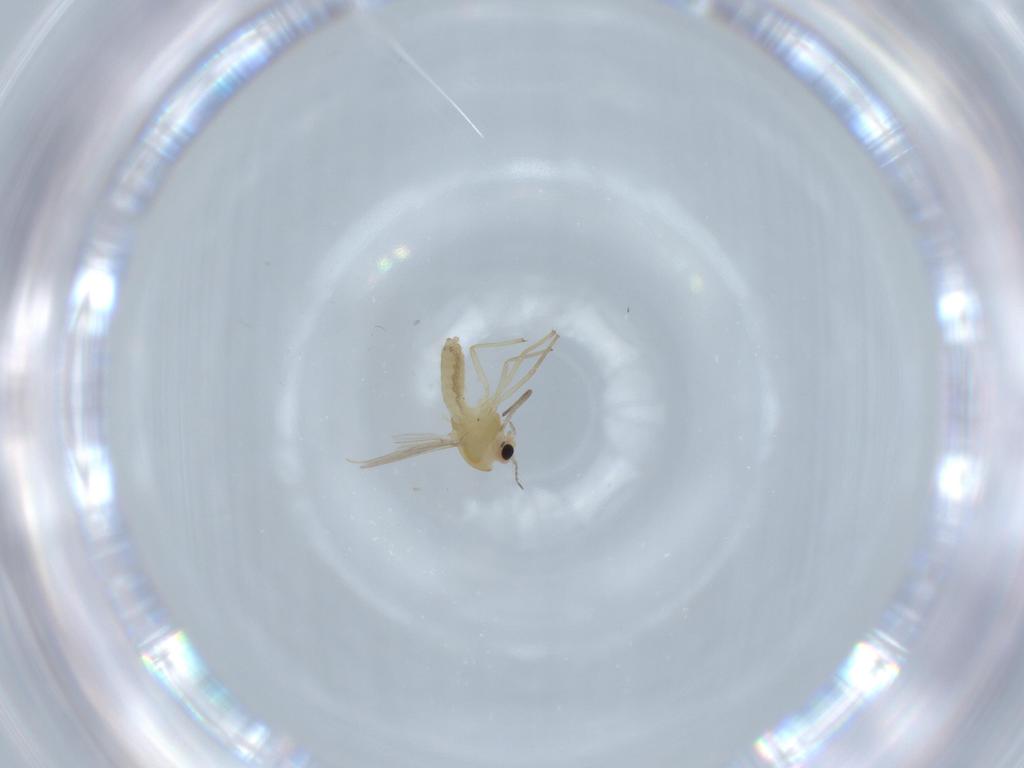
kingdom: Animalia
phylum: Arthropoda
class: Insecta
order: Diptera
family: Chironomidae
